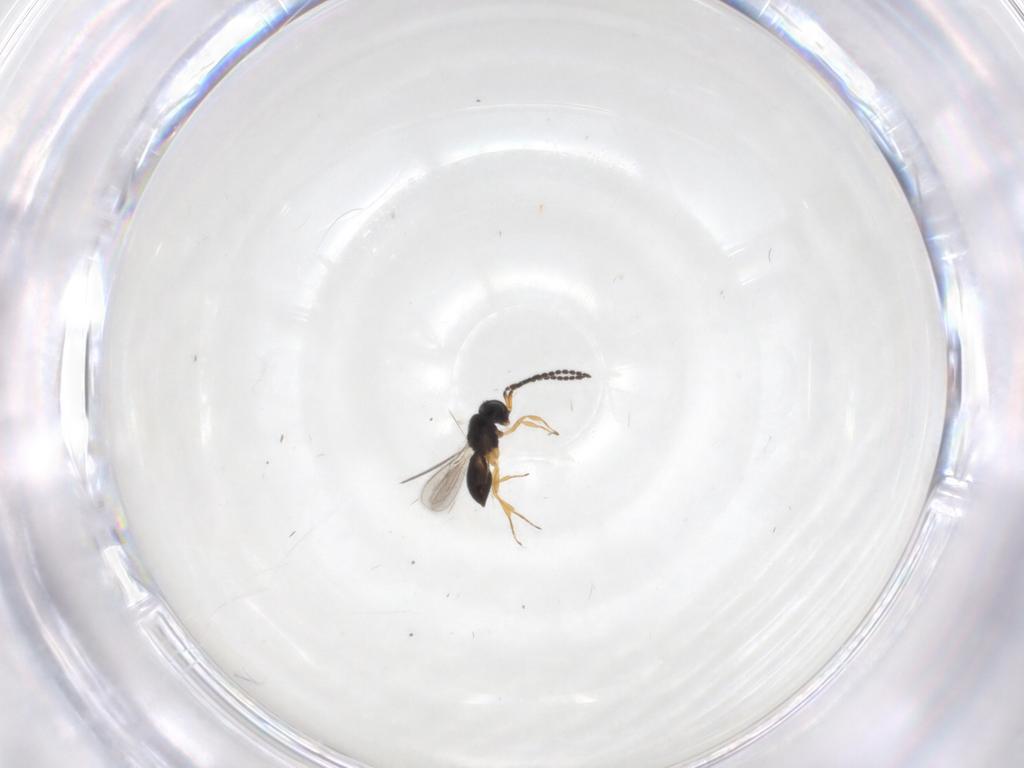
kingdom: Animalia
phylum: Arthropoda
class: Insecta
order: Hymenoptera
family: Scelionidae
